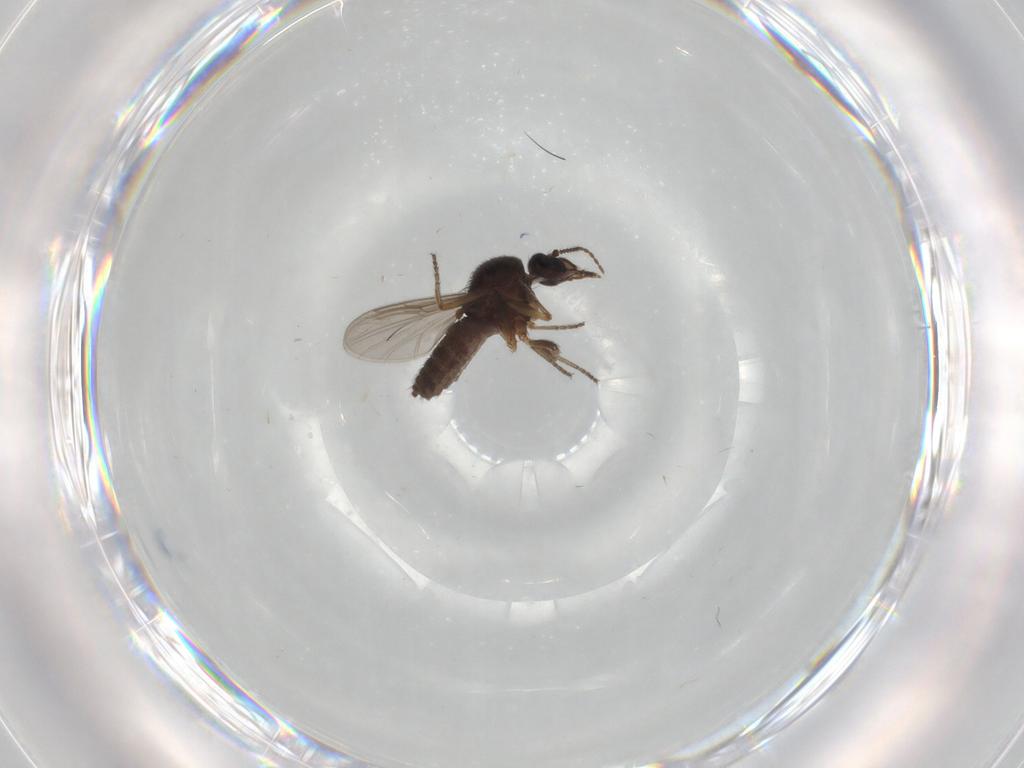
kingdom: Animalia
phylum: Arthropoda
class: Insecta
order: Diptera
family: Ceratopogonidae
